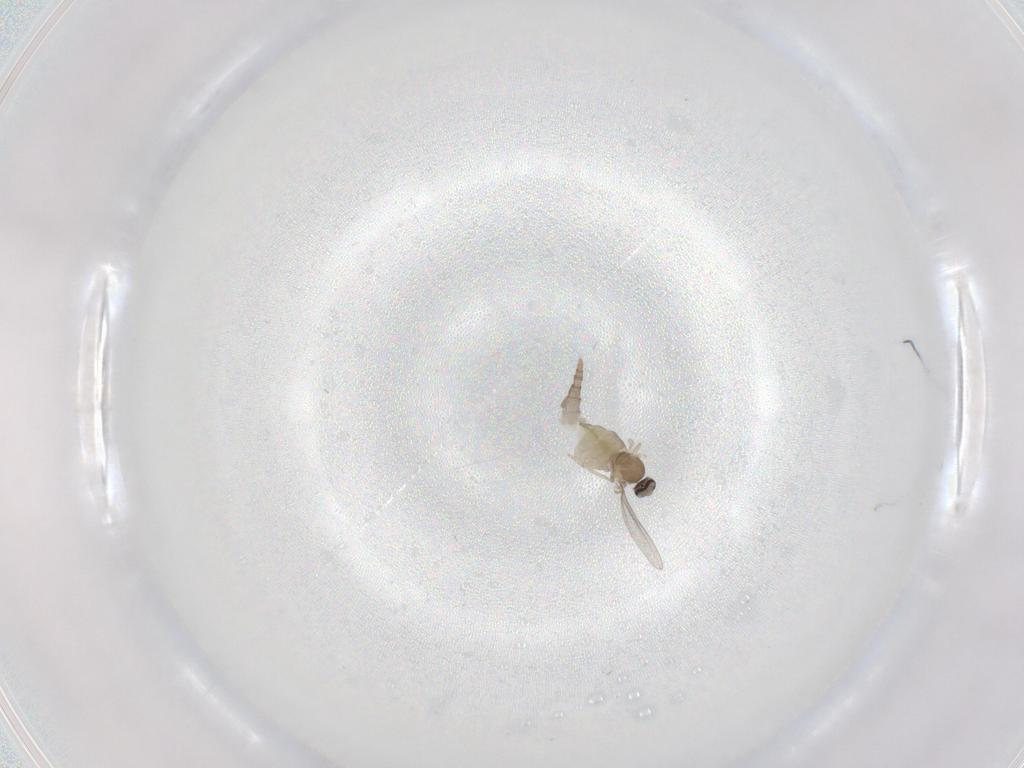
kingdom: Animalia
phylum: Arthropoda
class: Insecta
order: Diptera
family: Cecidomyiidae
